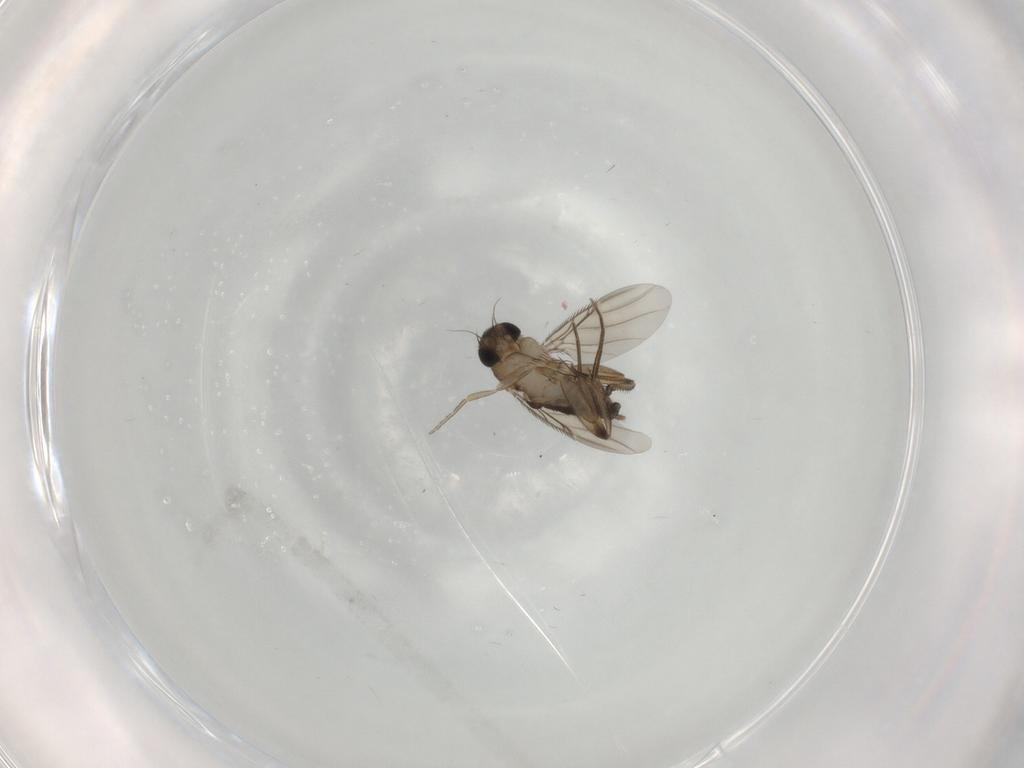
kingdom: Animalia
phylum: Arthropoda
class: Insecta
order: Diptera
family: Phoridae
